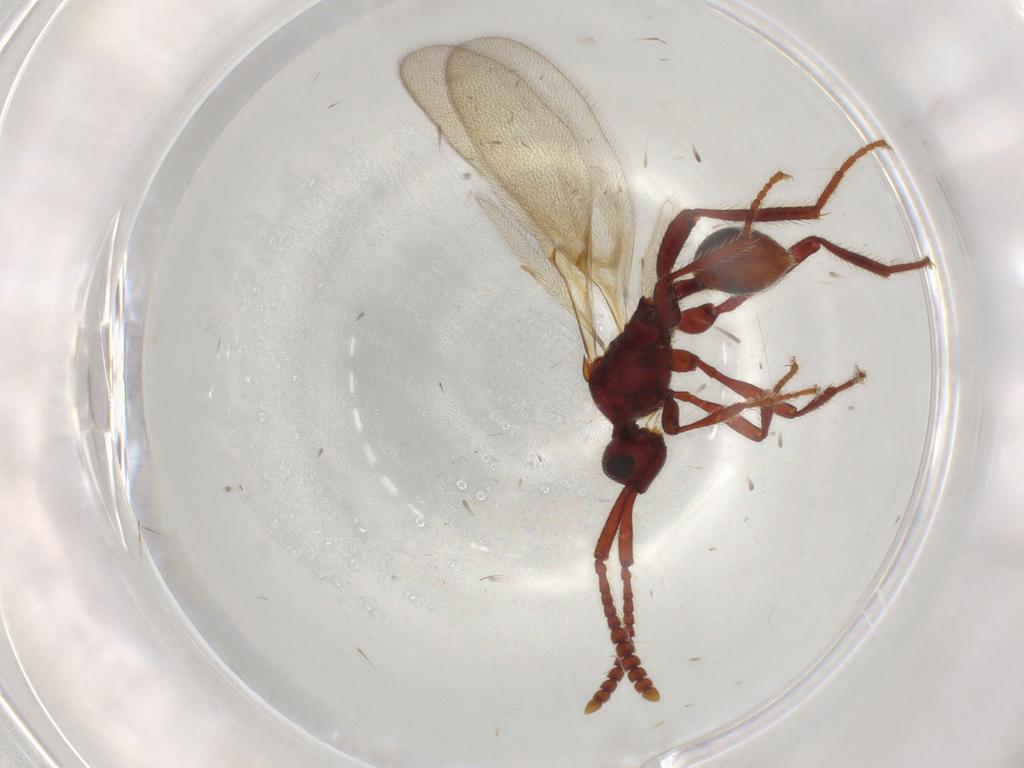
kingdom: Animalia
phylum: Arthropoda
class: Insecta
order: Hymenoptera
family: Diapriidae
